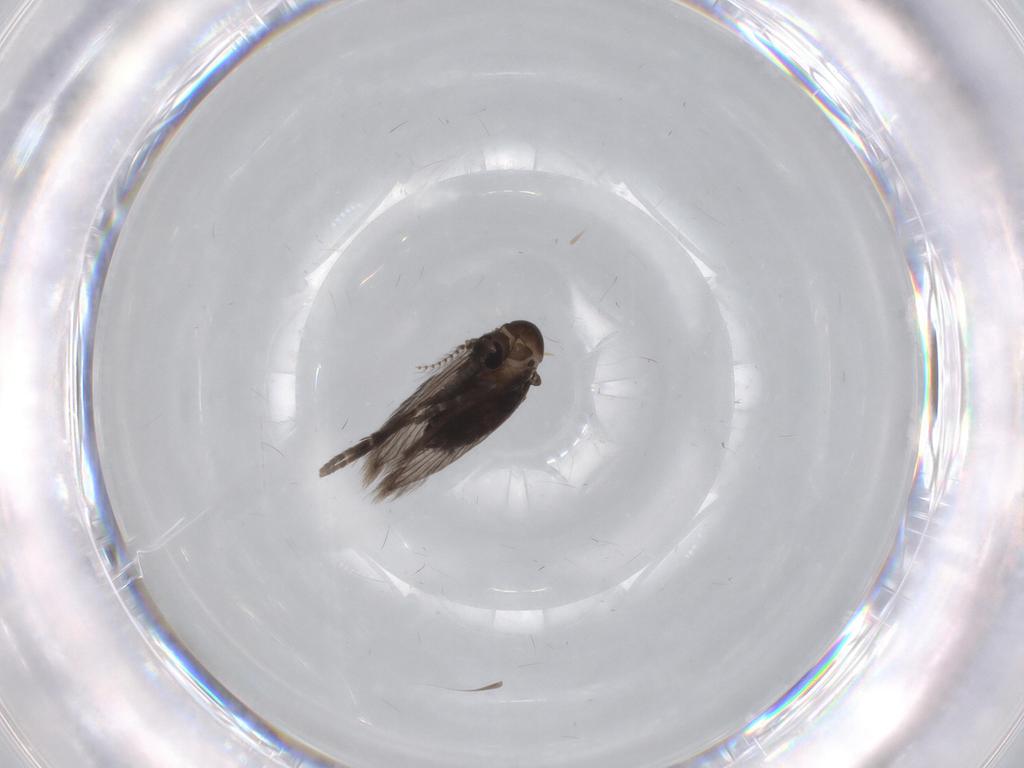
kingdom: Animalia
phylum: Arthropoda
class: Insecta
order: Diptera
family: Psychodidae
